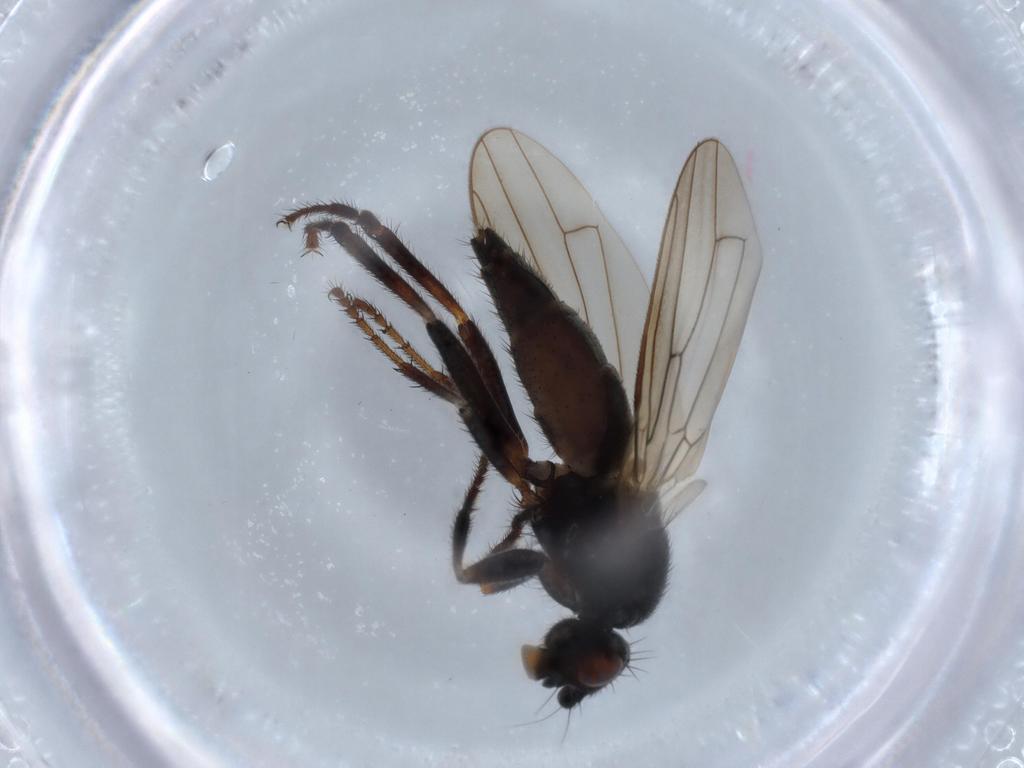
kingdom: Animalia
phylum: Arthropoda
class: Insecta
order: Diptera
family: Sphaeroceridae
